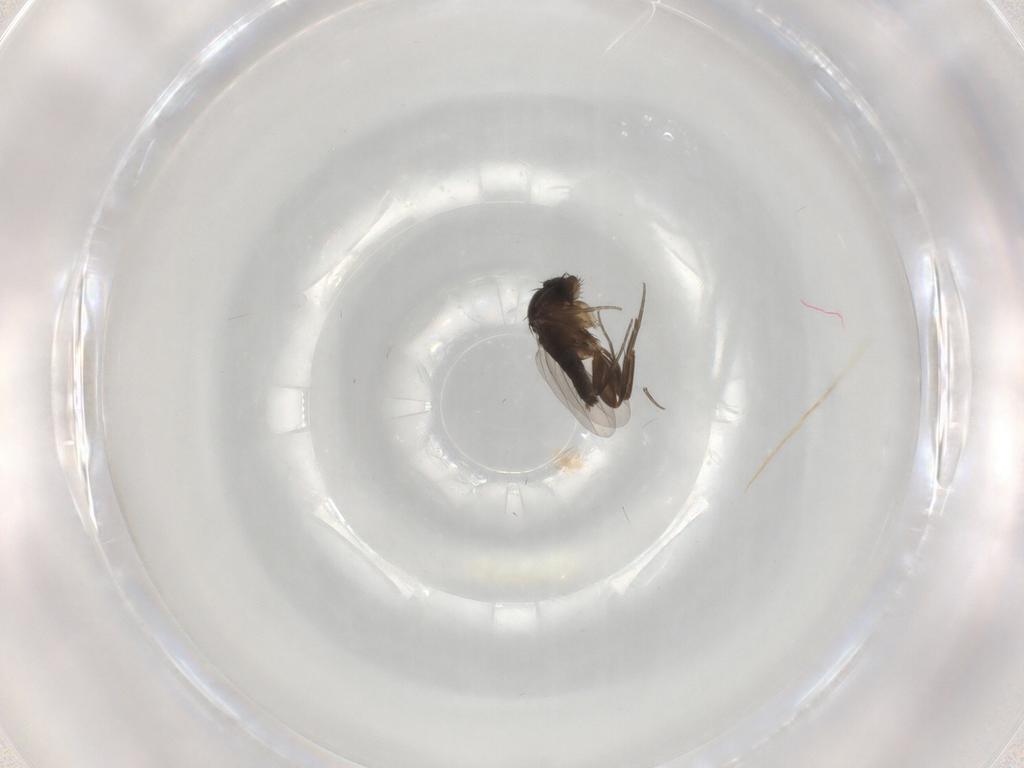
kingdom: Animalia
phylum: Arthropoda
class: Insecta
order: Diptera
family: Phoridae
